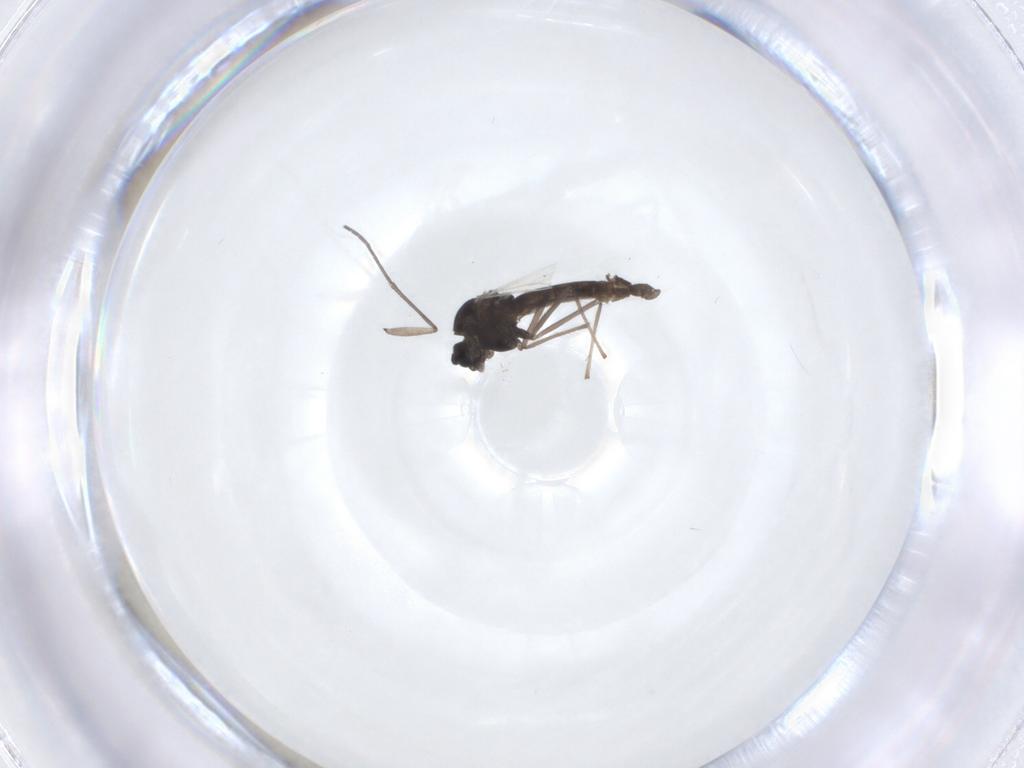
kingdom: Animalia
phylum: Arthropoda
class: Insecta
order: Diptera
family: Chironomidae
